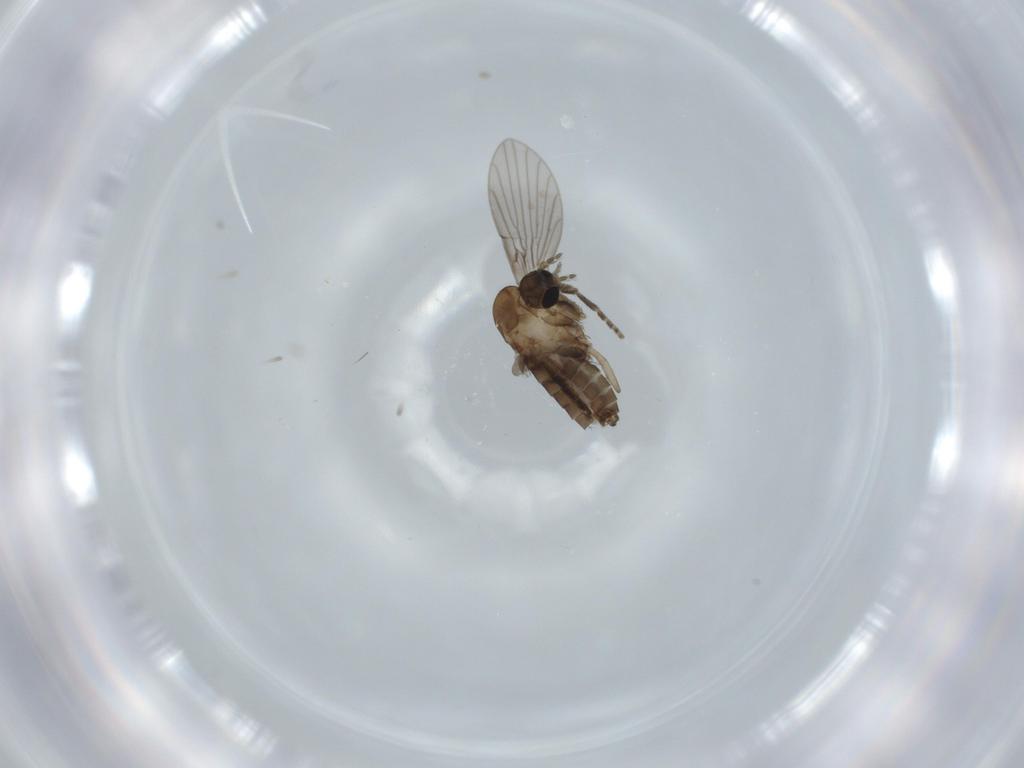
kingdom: Animalia
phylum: Arthropoda
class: Insecta
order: Diptera
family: Psychodidae
